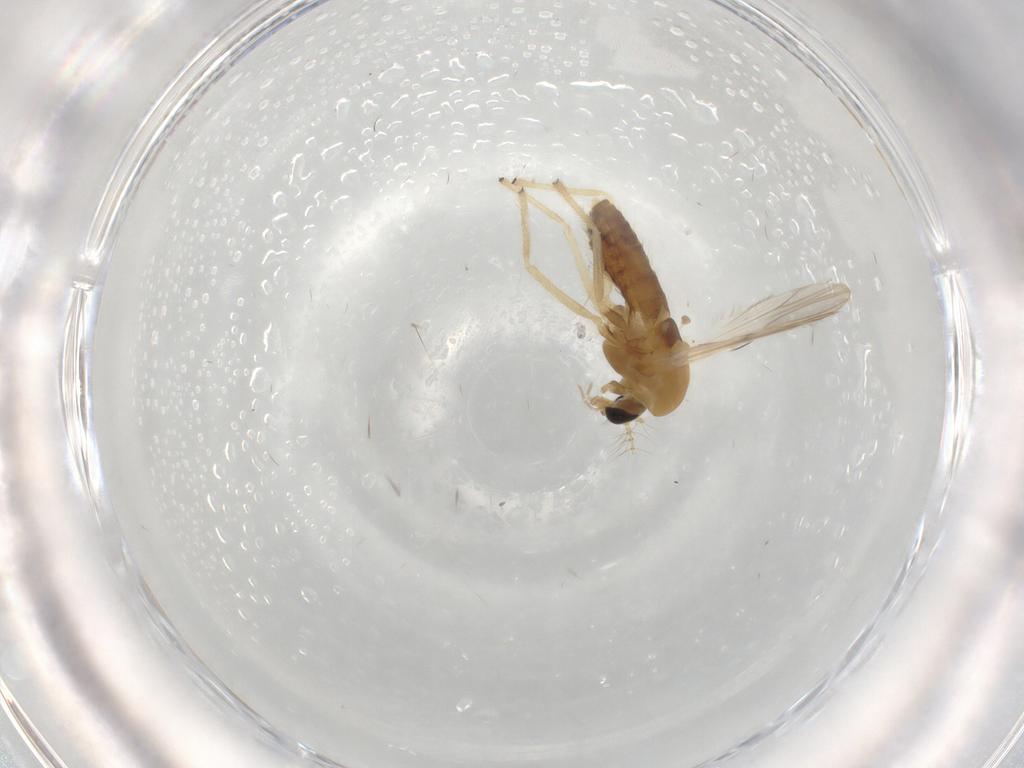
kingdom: Animalia
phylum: Arthropoda
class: Insecta
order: Diptera
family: Chironomidae
